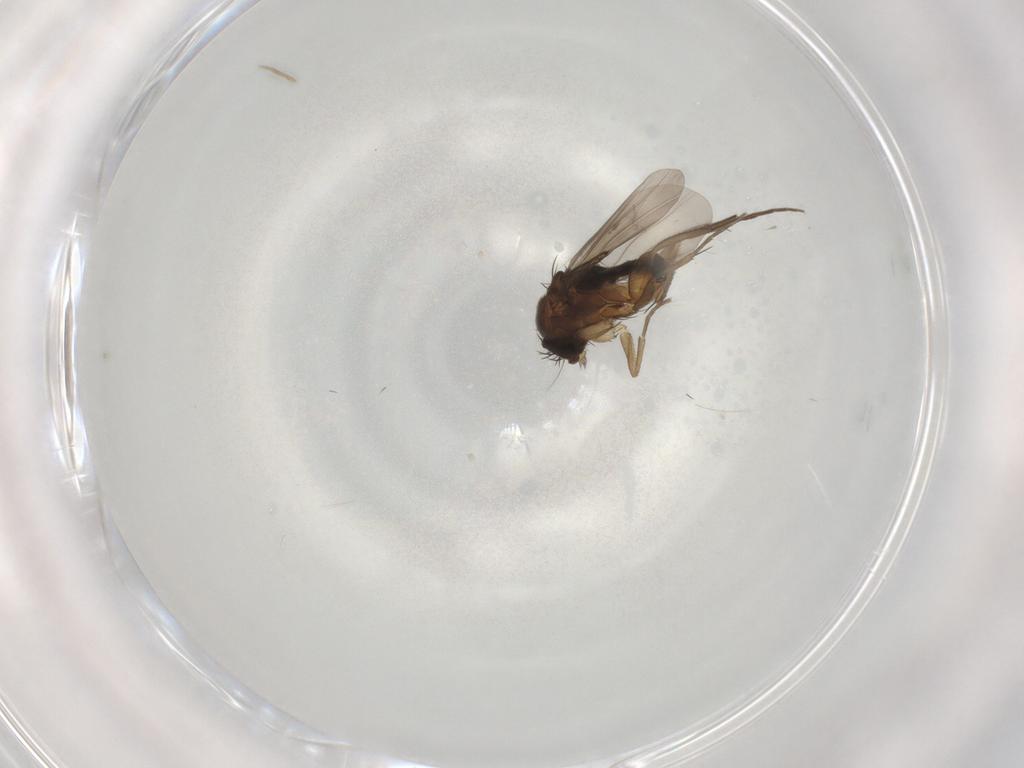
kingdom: Animalia
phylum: Arthropoda
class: Insecta
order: Diptera
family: Phoridae
